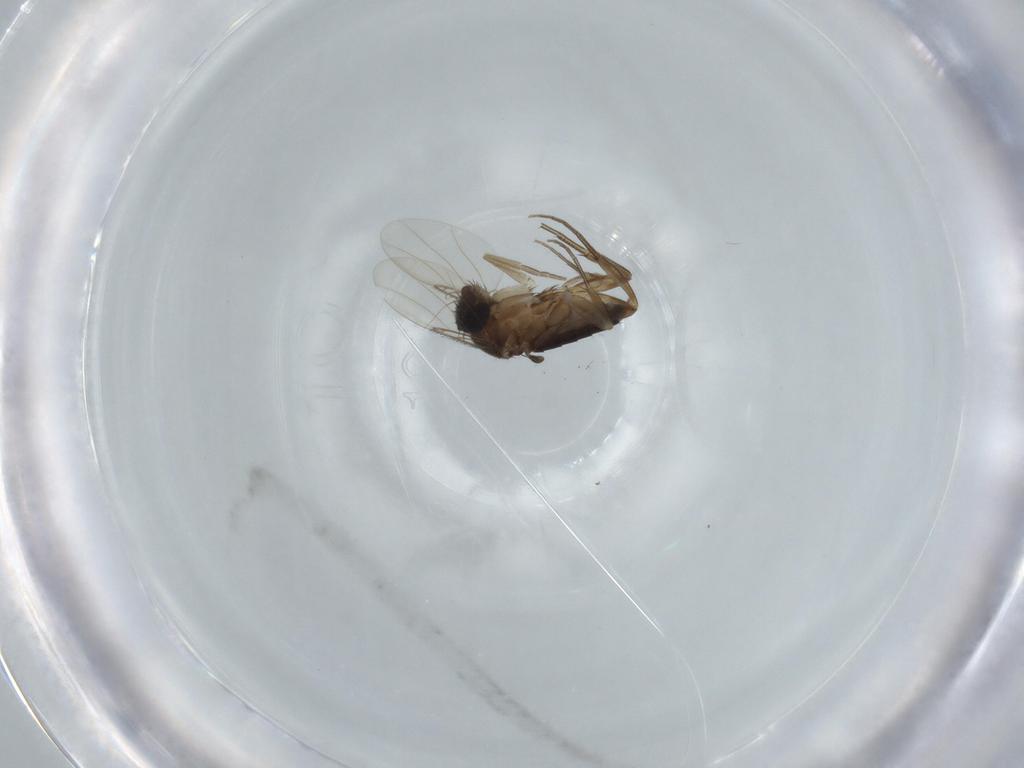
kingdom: Animalia
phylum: Arthropoda
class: Insecta
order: Diptera
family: Phoridae
